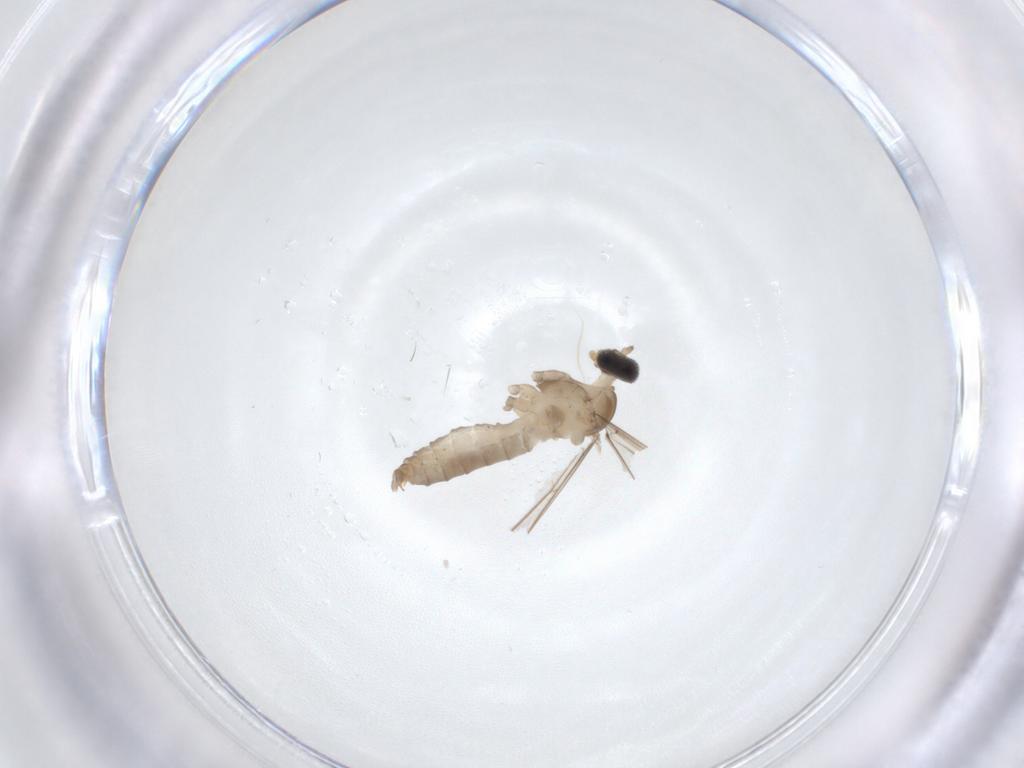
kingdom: Animalia
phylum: Arthropoda
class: Insecta
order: Diptera
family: Cecidomyiidae
